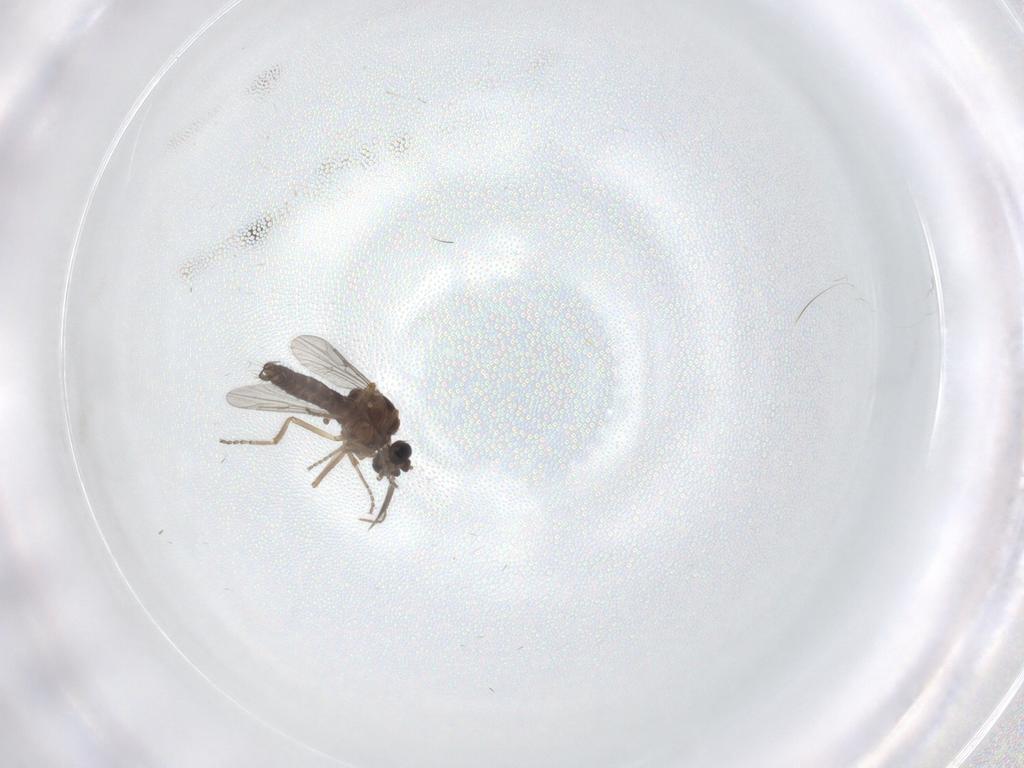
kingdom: Animalia
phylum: Arthropoda
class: Insecta
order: Diptera
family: Ceratopogonidae
